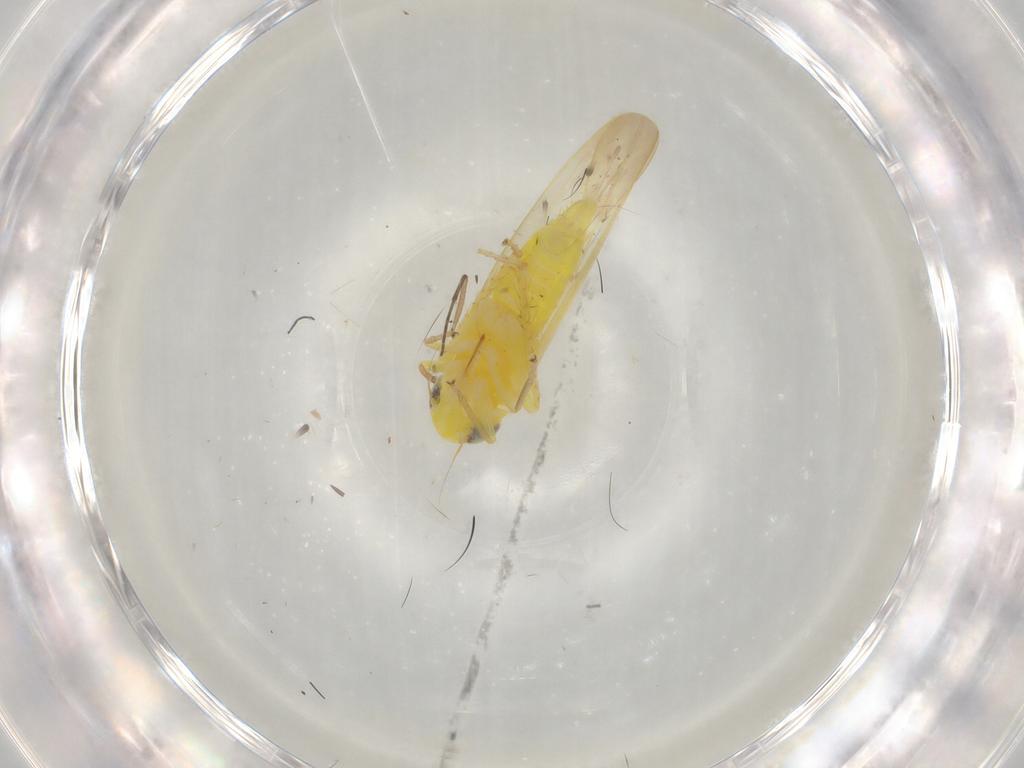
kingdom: Animalia
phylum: Arthropoda
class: Insecta
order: Hemiptera
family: Cicadellidae
